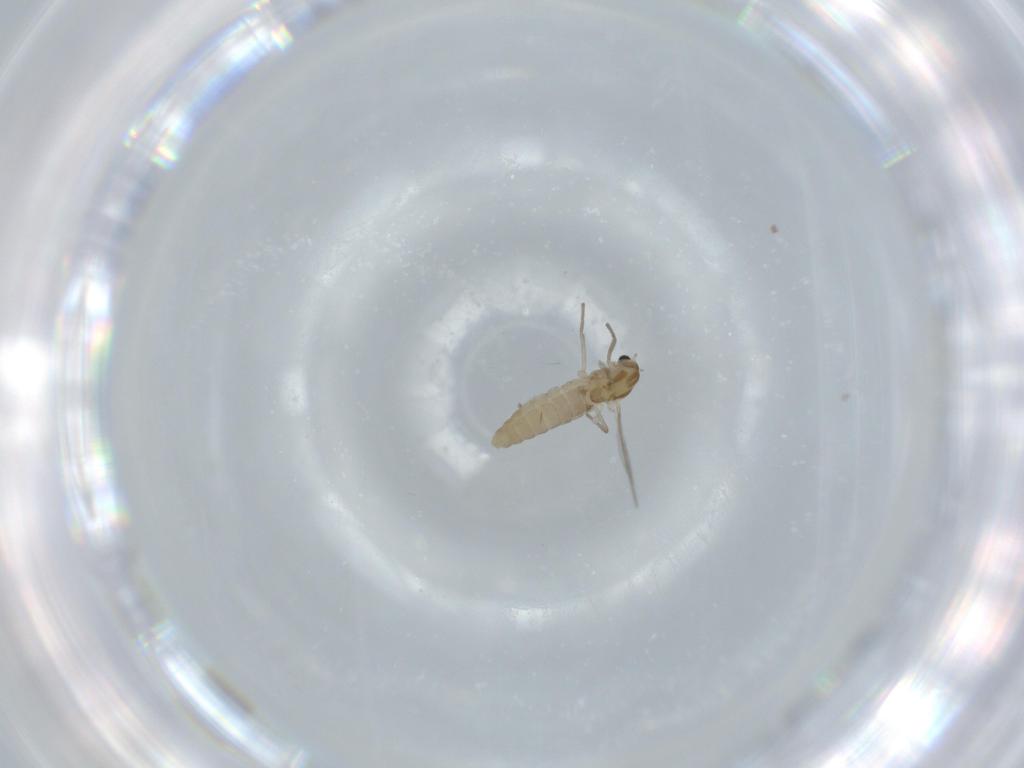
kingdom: Animalia
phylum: Arthropoda
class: Insecta
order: Diptera
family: Chironomidae
